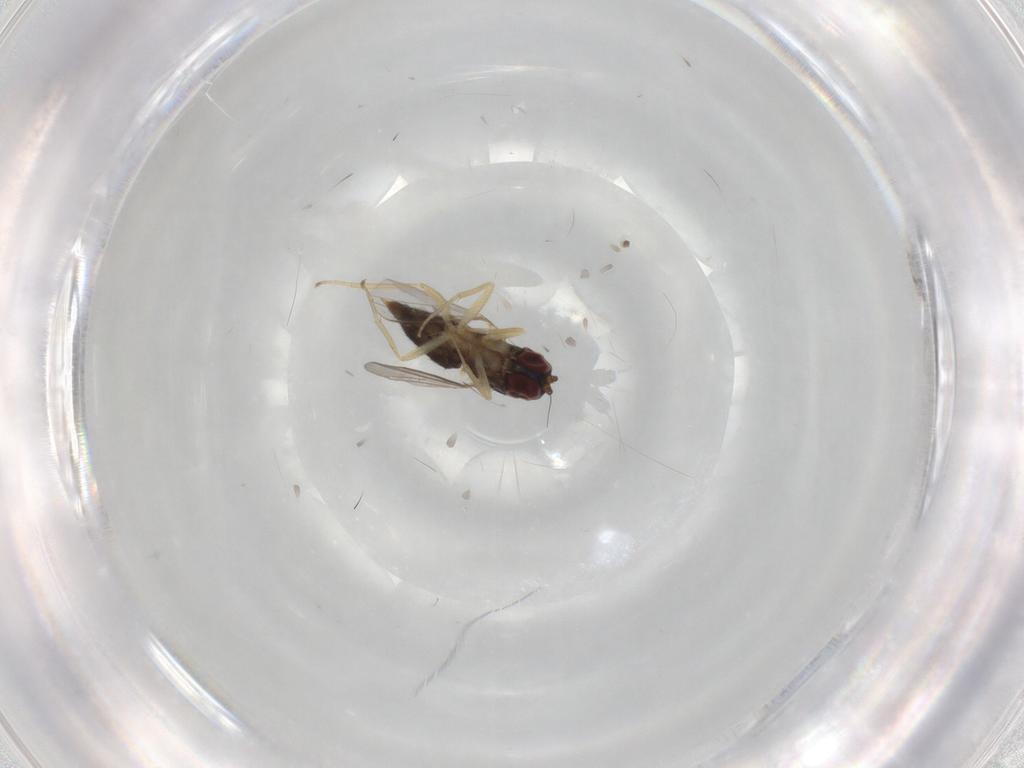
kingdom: Animalia
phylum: Arthropoda
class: Insecta
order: Diptera
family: Dolichopodidae
